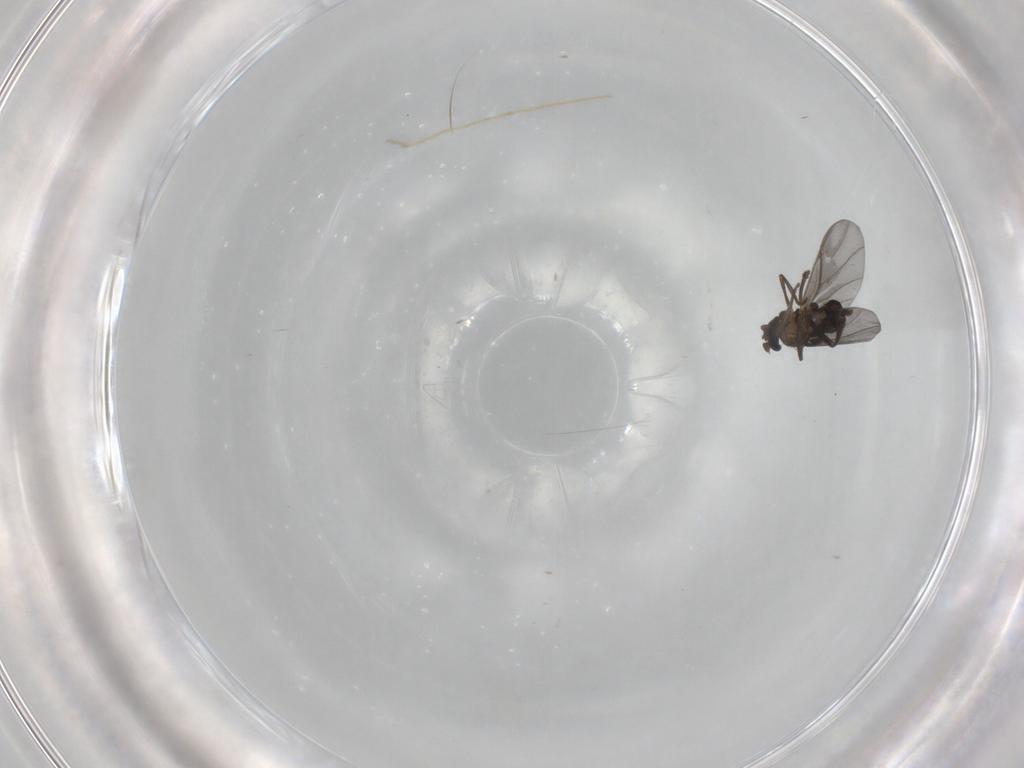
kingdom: Animalia
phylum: Arthropoda
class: Insecta
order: Diptera
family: Phoridae
